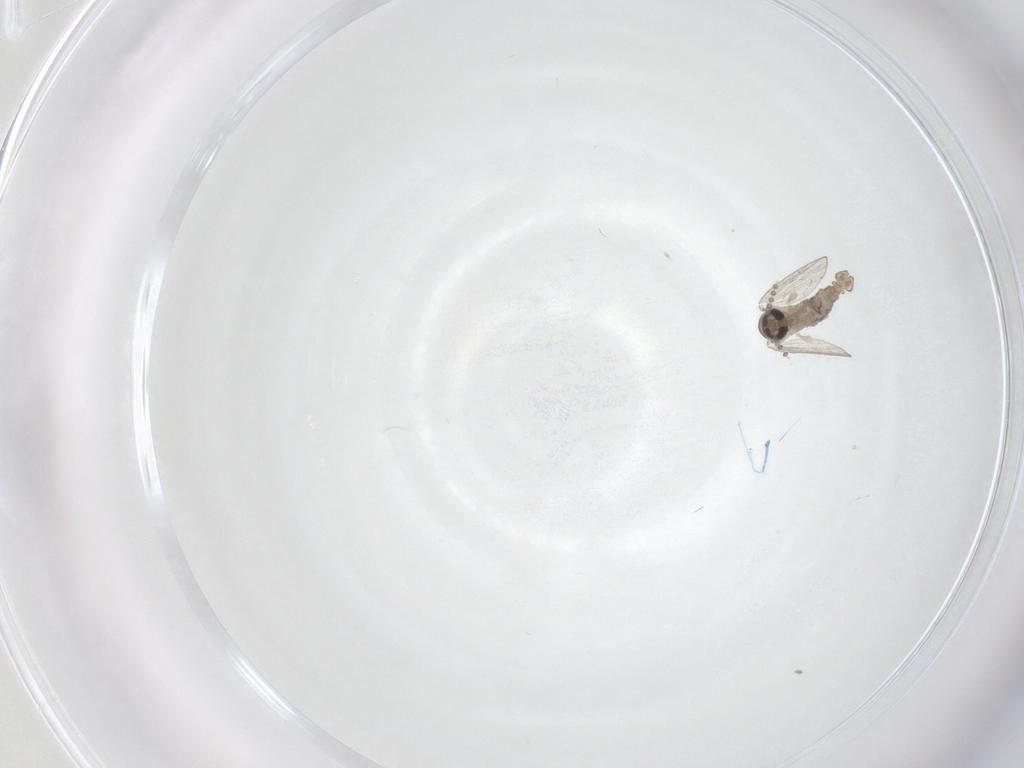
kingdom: Animalia
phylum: Arthropoda
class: Insecta
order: Diptera
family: Psychodidae
